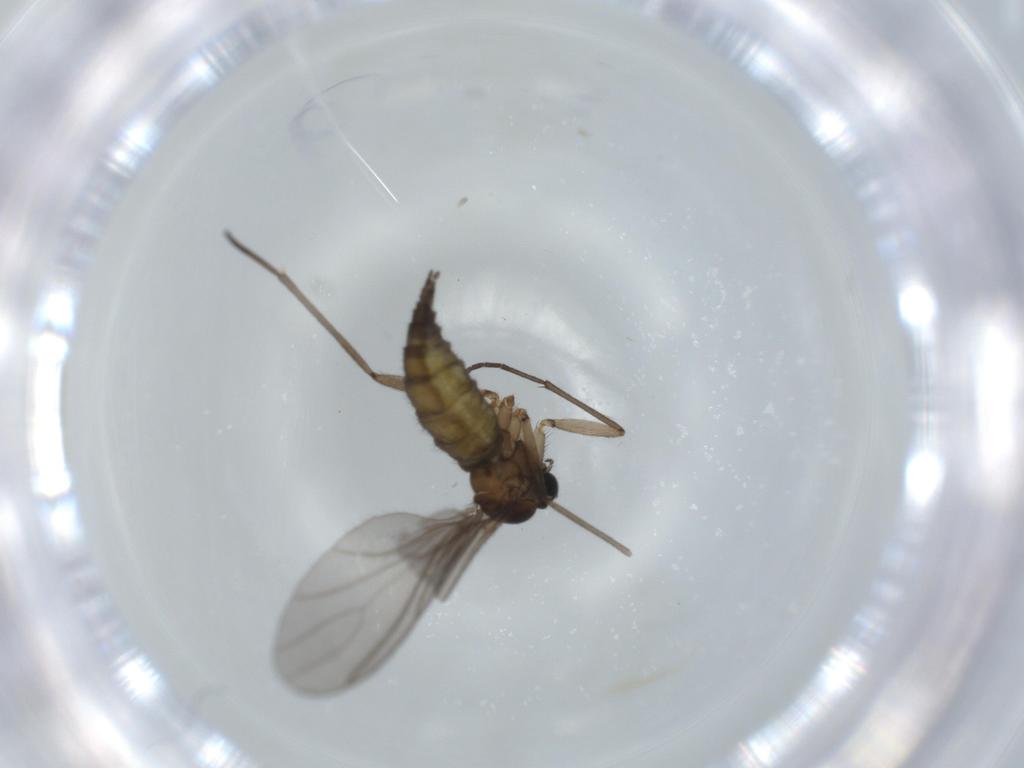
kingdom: Animalia
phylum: Arthropoda
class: Insecta
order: Diptera
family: Sciaridae
